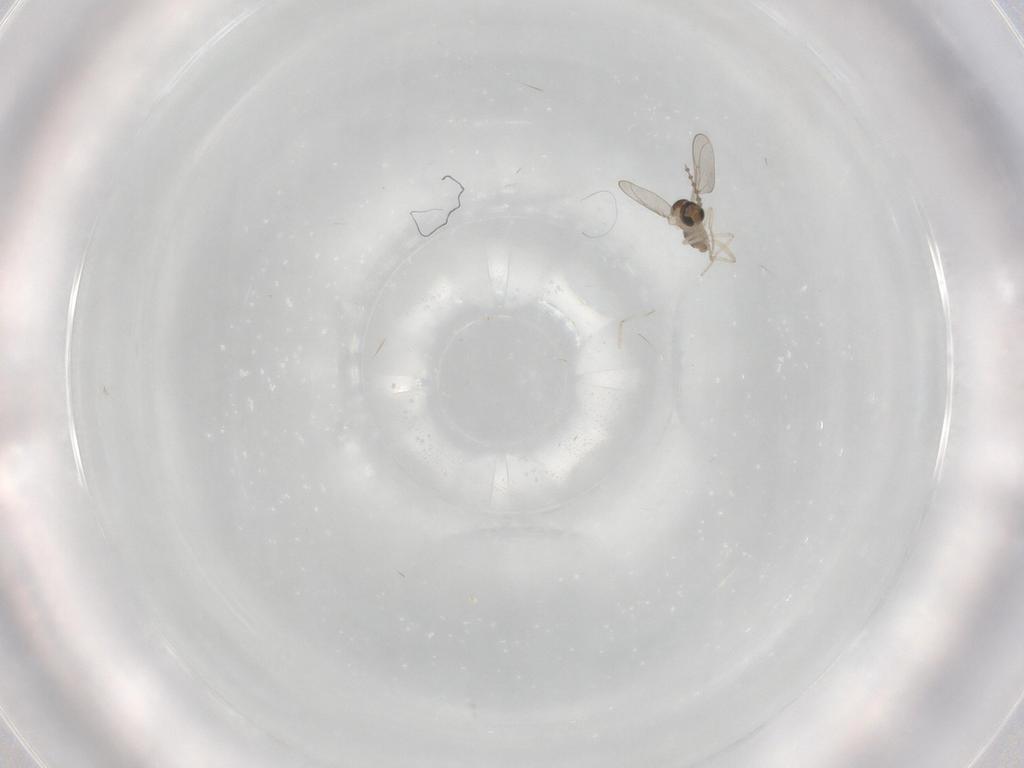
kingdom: Animalia
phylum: Arthropoda
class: Insecta
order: Diptera
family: Cecidomyiidae
